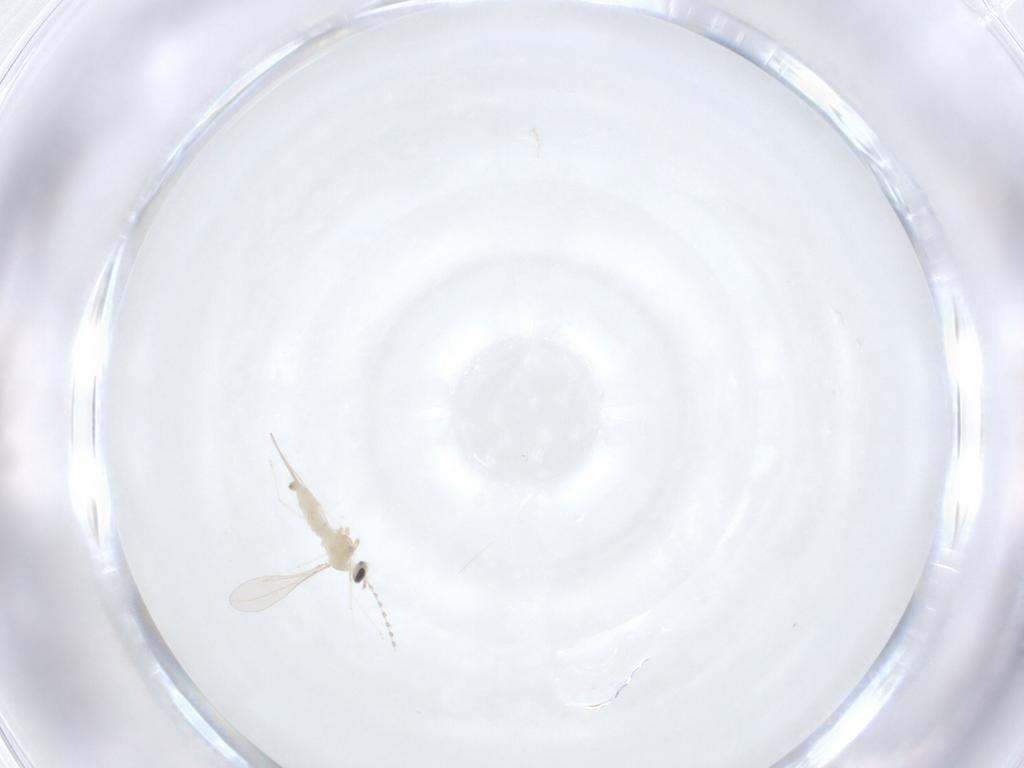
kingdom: Animalia
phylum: Arthropoda
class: Insecta
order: Diptera
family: Cecidomyiidae
